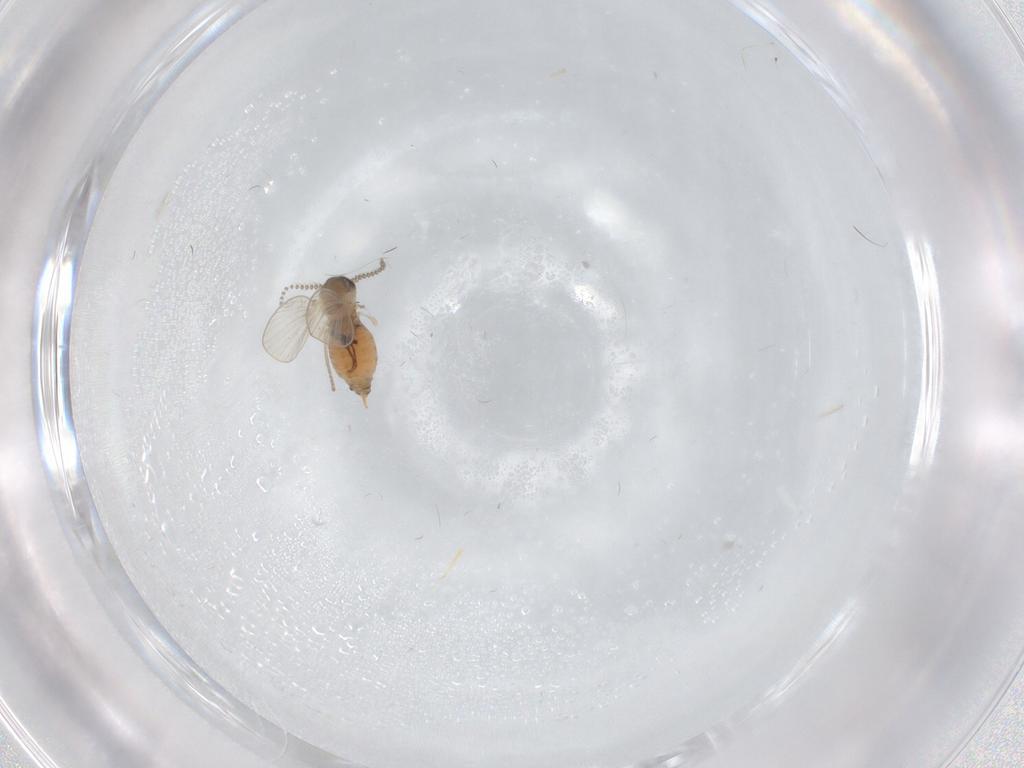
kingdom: Animalia
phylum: Arthropoda
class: Insecta
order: Diptera
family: Psychodidae
